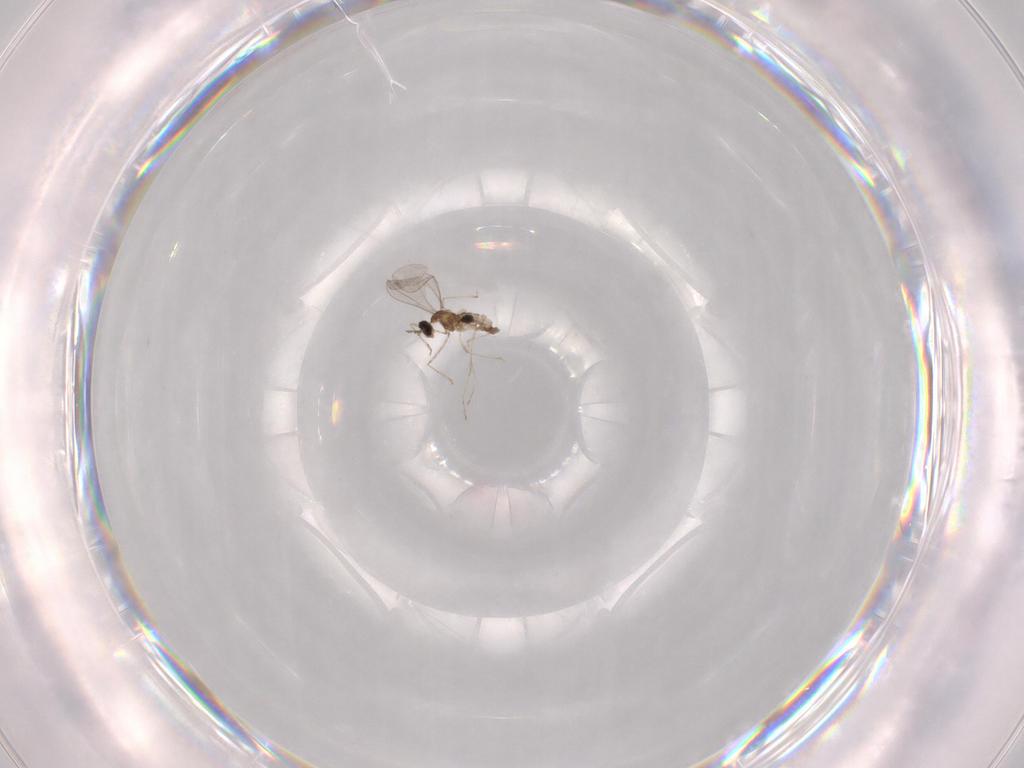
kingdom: Animalia
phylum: Arthropoda
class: Insecta
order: Diptera
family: Cecidomyiidae
